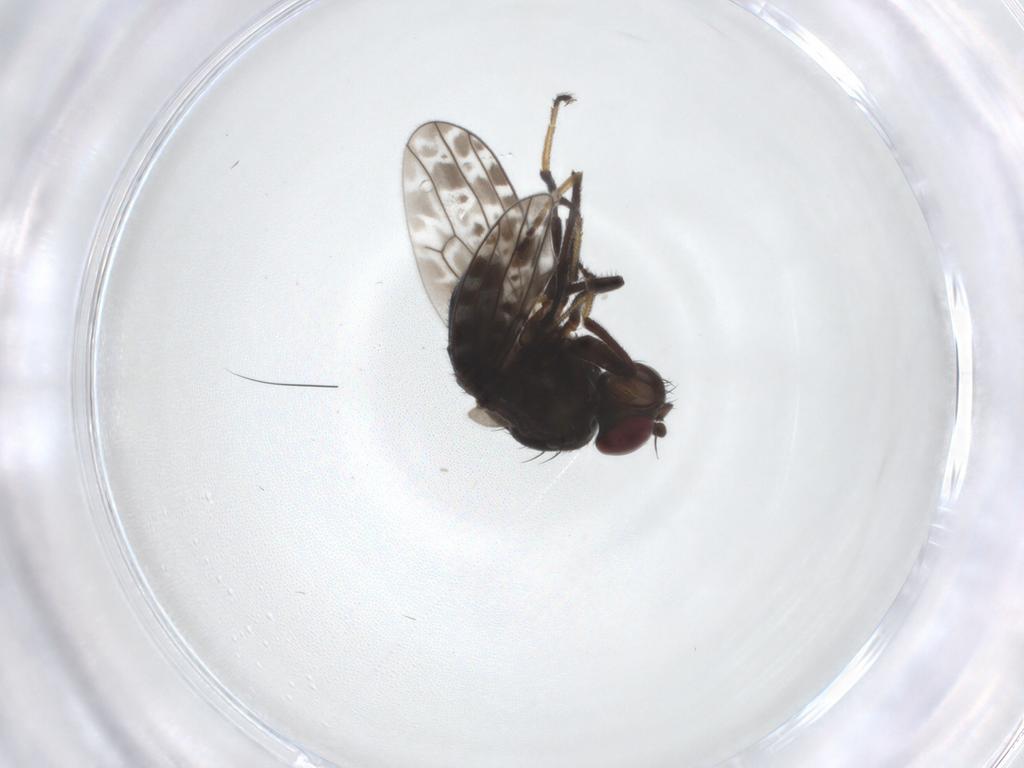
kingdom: Animalia
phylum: Arthropoda
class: Insecta
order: Diptera
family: Ephydridae
